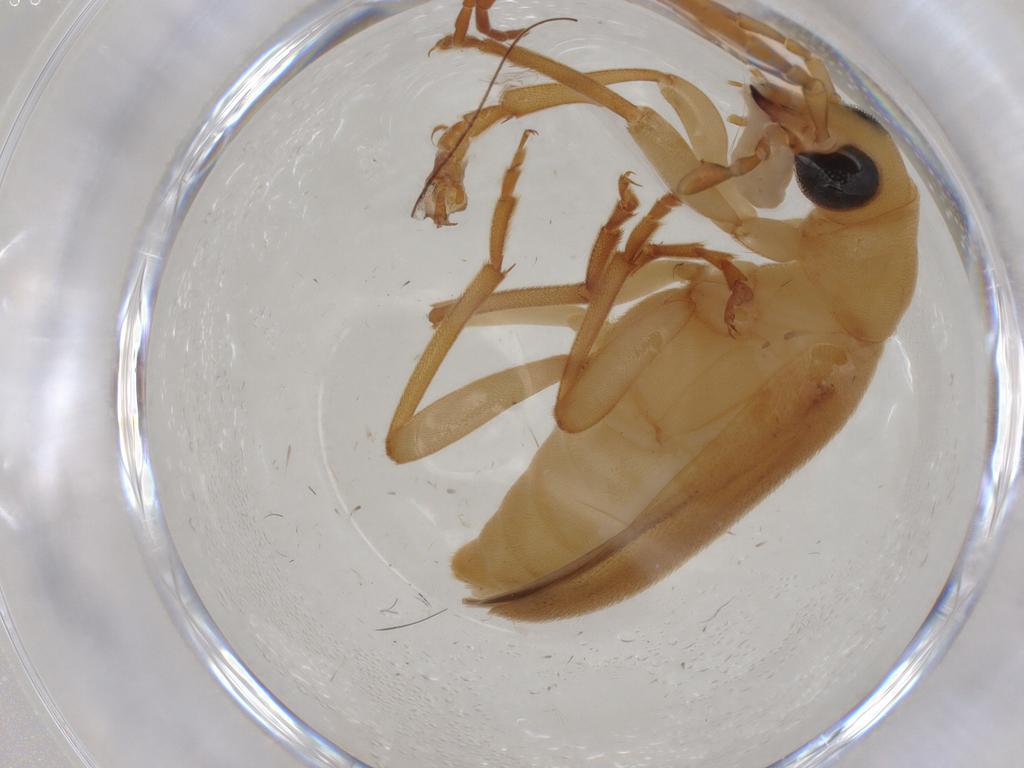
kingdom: Animalia
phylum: Arthropoda
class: Insecta
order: Coleoptera
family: Oedemeridae
